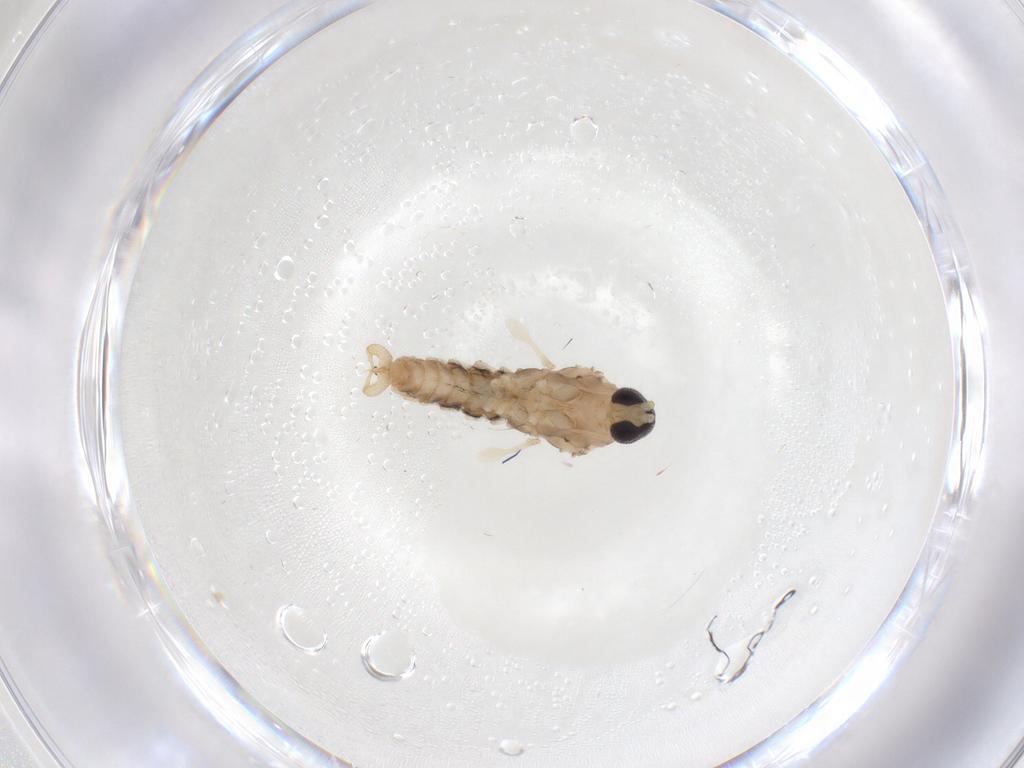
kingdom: Animalia
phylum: Arthropoda
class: Insecta
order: Diptera
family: Cecidomyiidae
